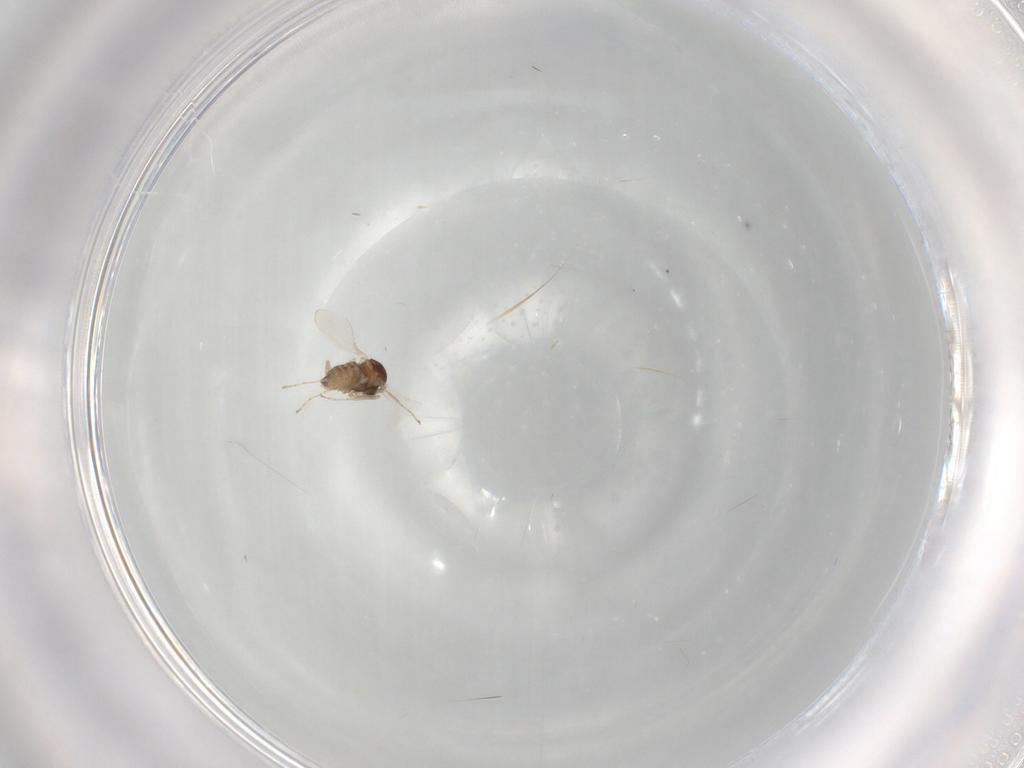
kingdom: Animalia
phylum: Arthropoda
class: Insecta
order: Diptera
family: Cecidomyiidae
